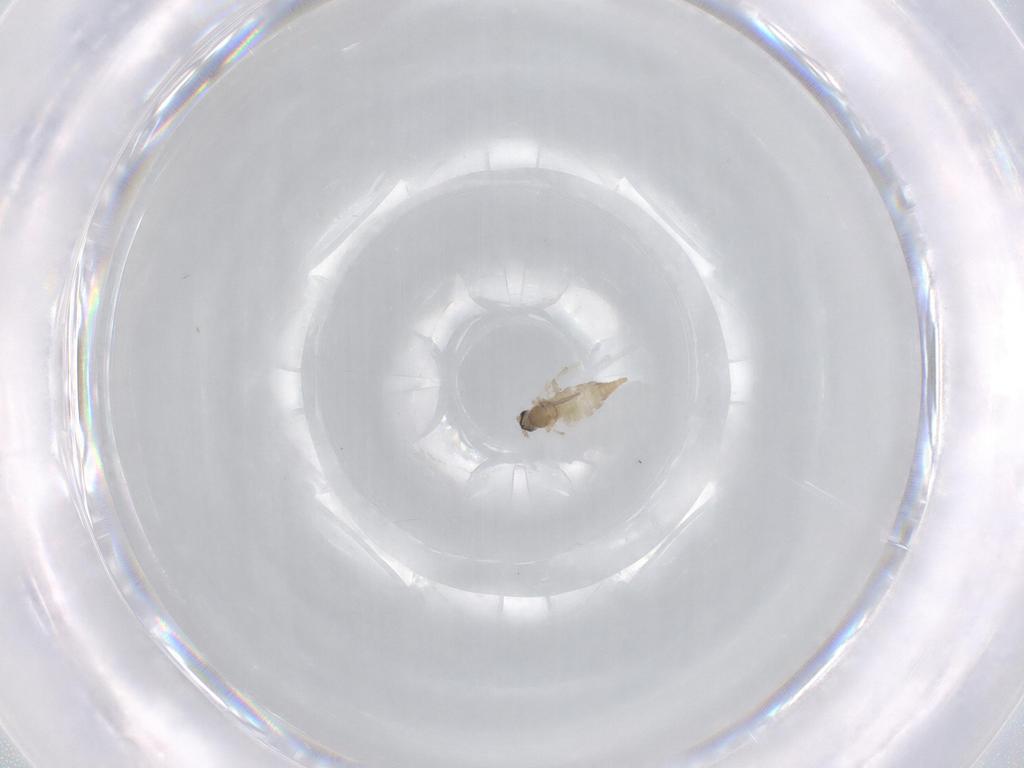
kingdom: Animalia
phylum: Arthropoda
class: Insecta
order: Diptera
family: Cecidomyiidae
